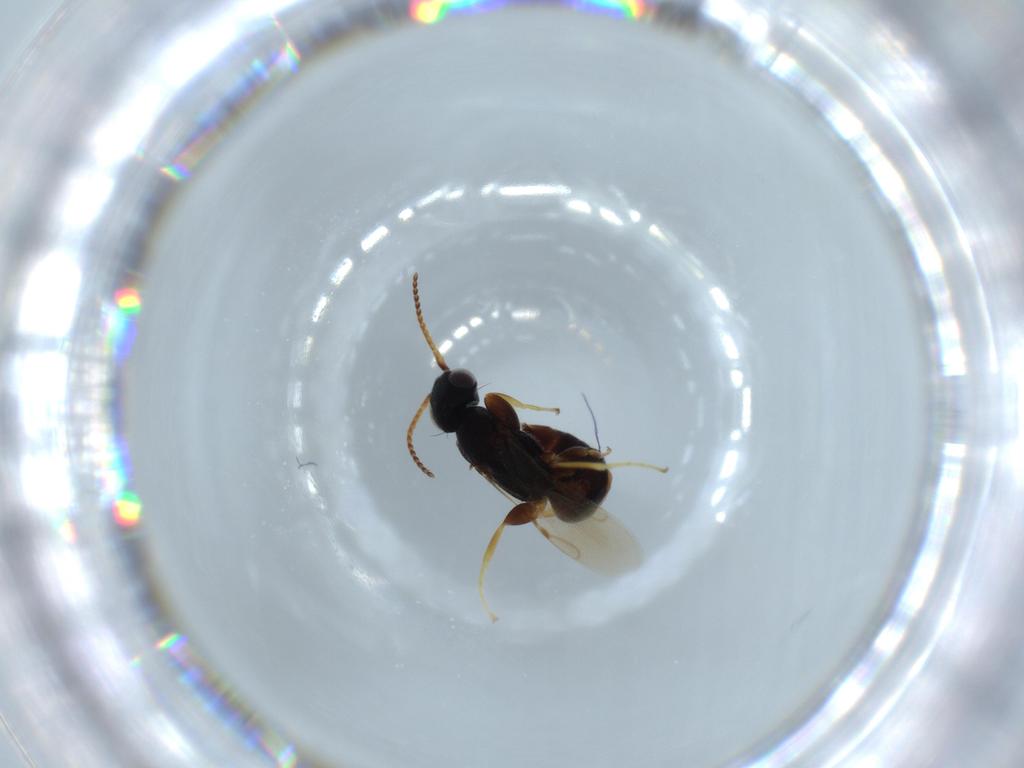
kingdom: Animalia
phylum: Arthropoda
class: Insecta
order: Hymenoptera
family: Bethylidae
